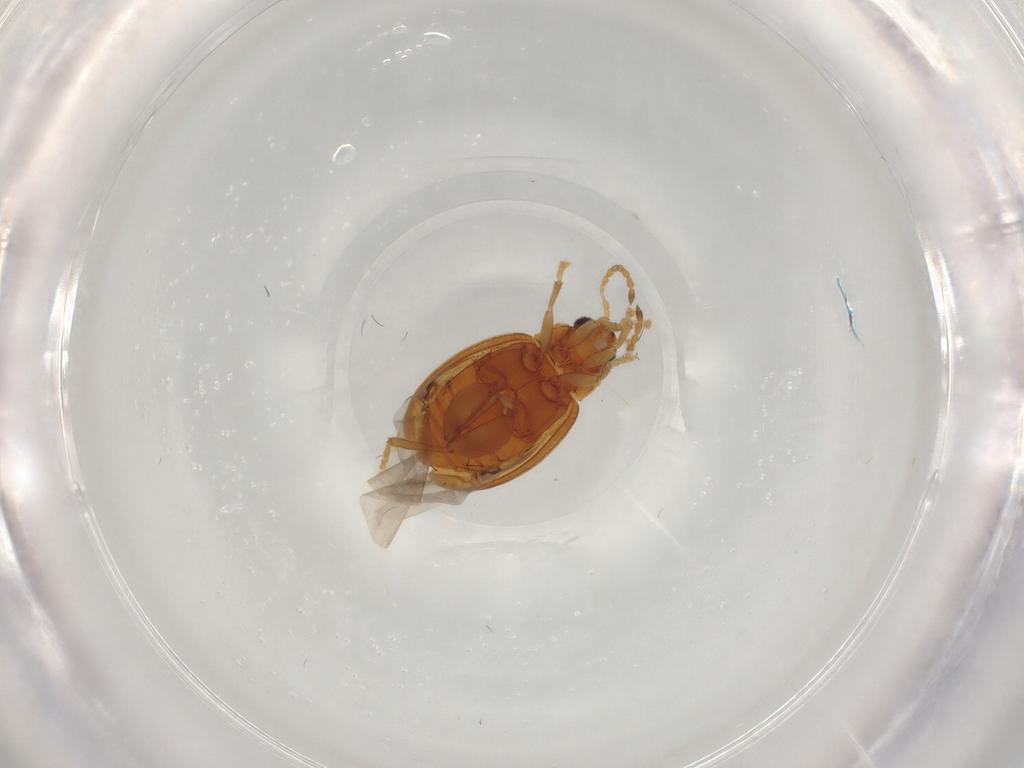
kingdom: Animalia
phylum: Arthropoda
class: Insecta
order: Coleoptera
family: Chrysomelidae
